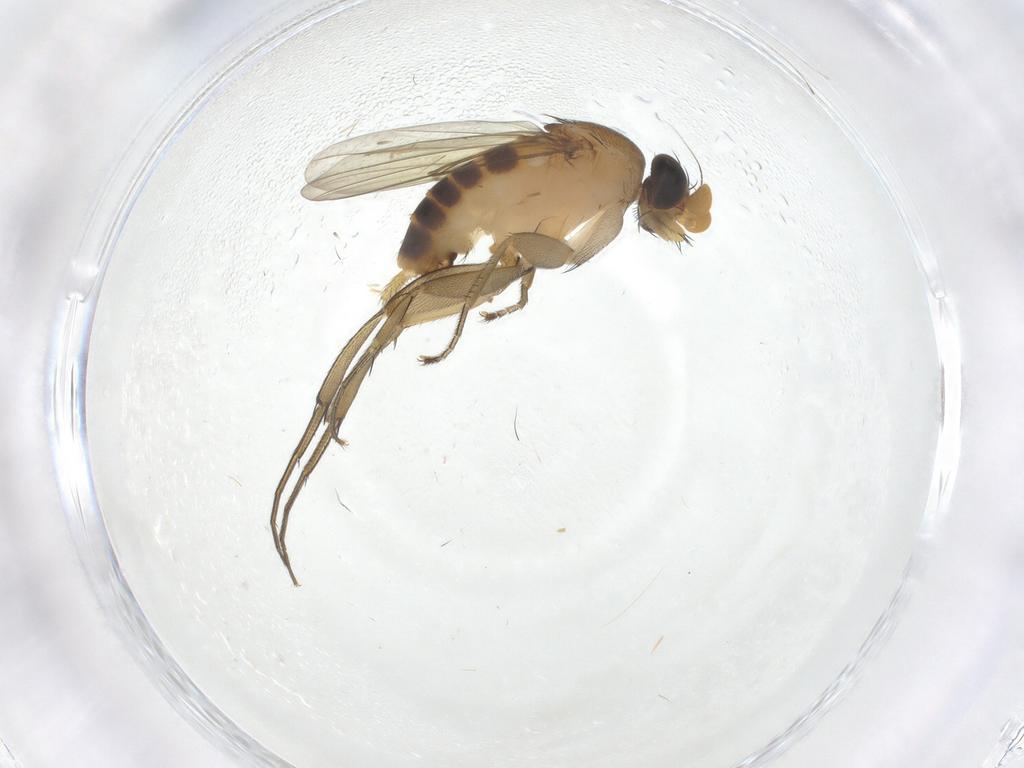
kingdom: Animalia
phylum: Arthropoda
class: Insecta
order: Diptera
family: Phoridae
